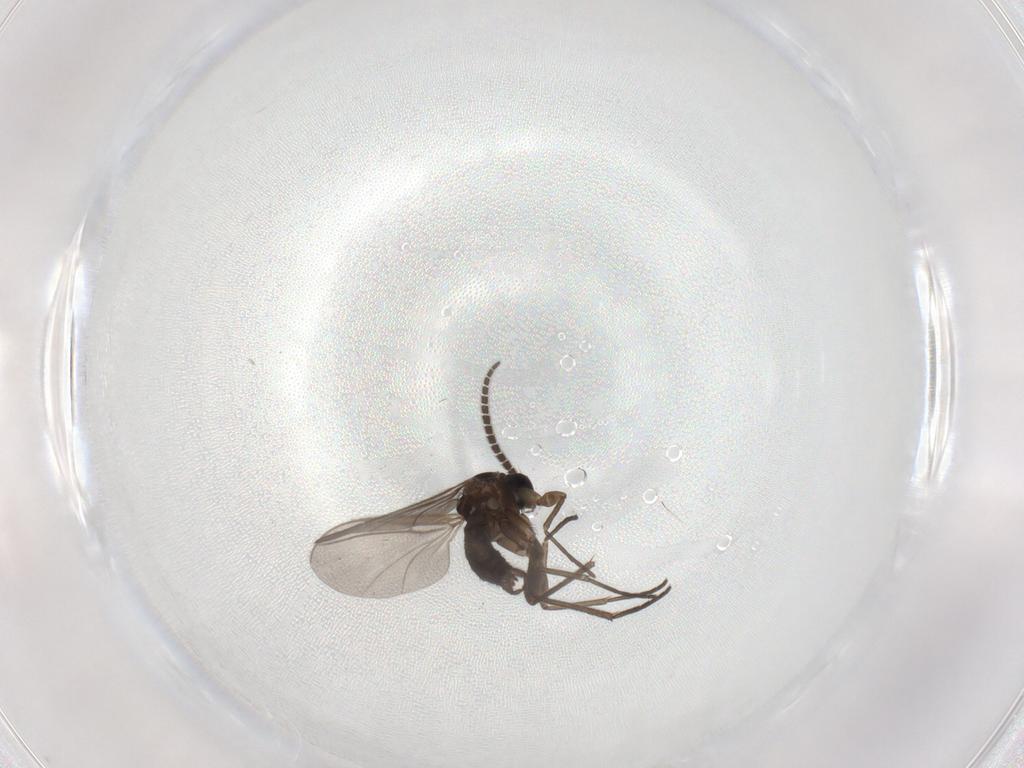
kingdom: Animalia
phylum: Arthropoda
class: Insecta
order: Diptera
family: Sciaridae
